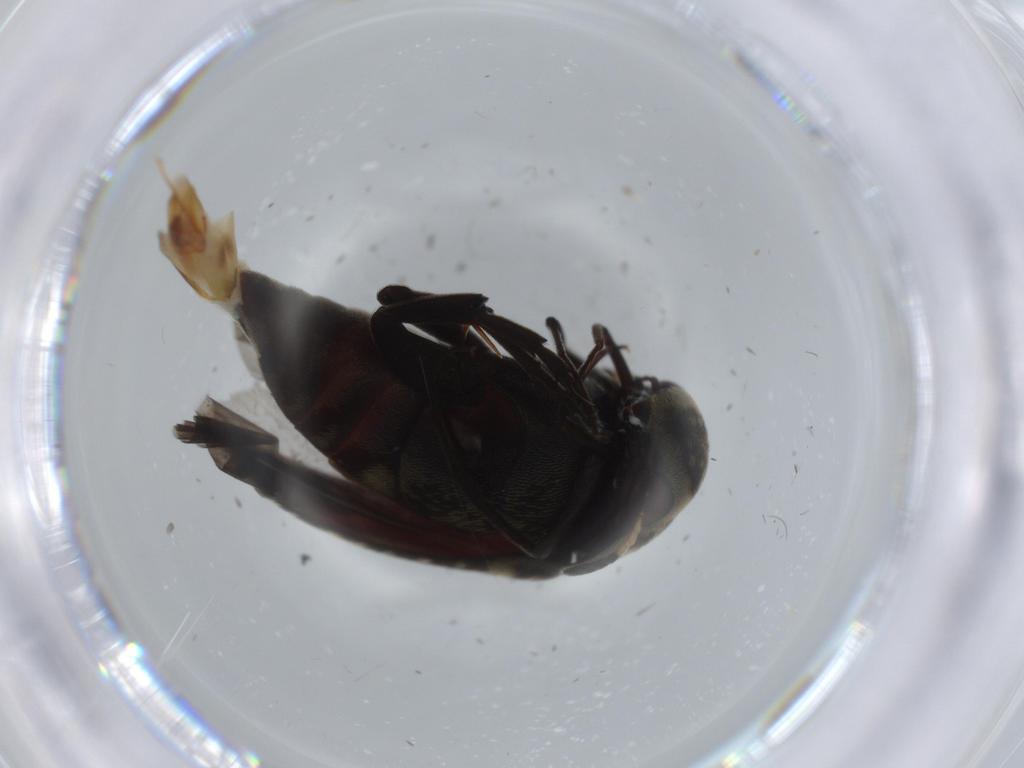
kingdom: Animalia
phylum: Arthropoda
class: Insecta
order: Coleoptera
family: Chrysomelidae
